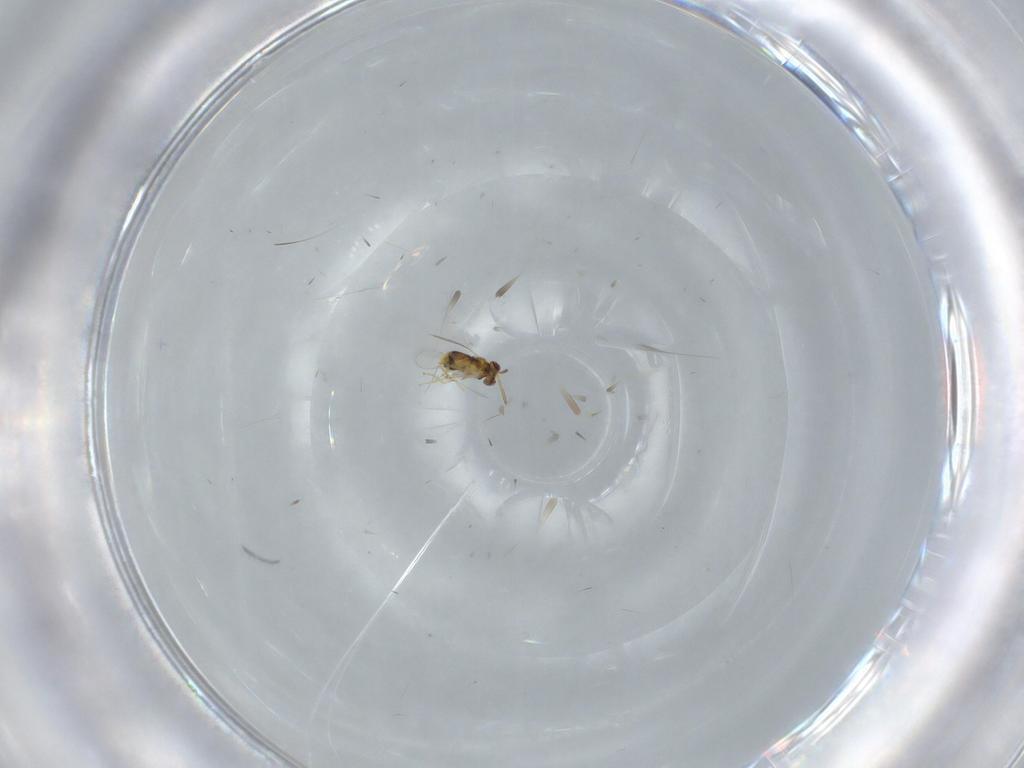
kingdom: Animalia
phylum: Arthropoda
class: Insecta
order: Hymenoptera
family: Aphelinidae
